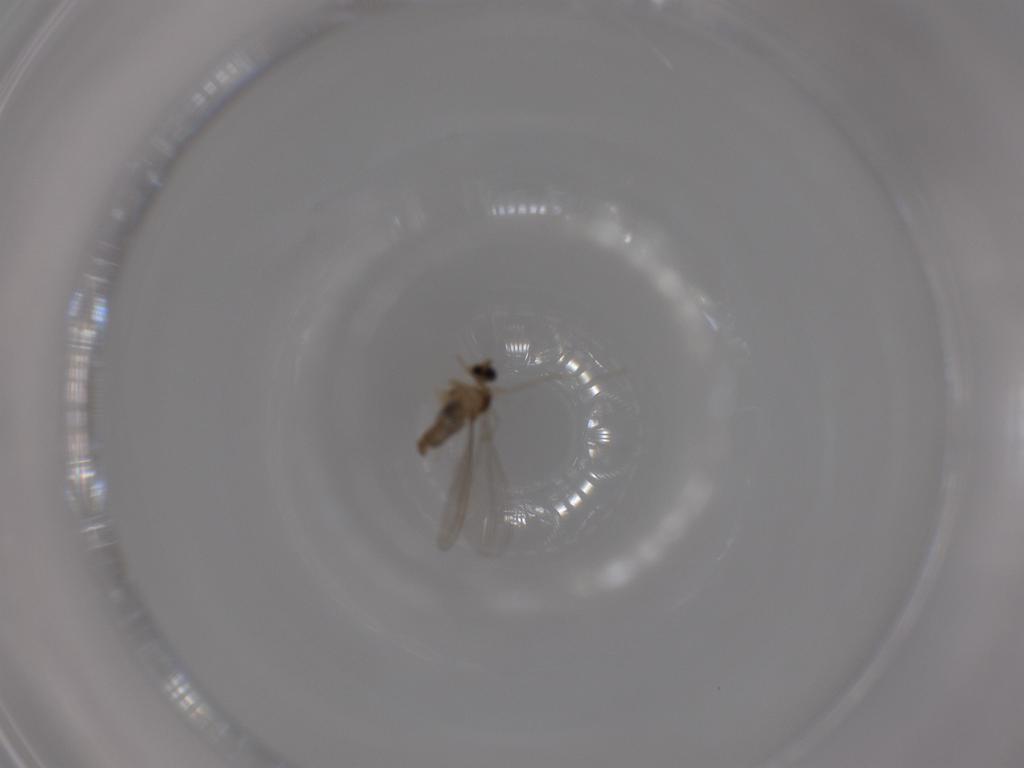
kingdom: Animalia
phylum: Arthropoda
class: Insecta
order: Diptera
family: Cecidomyiidae
